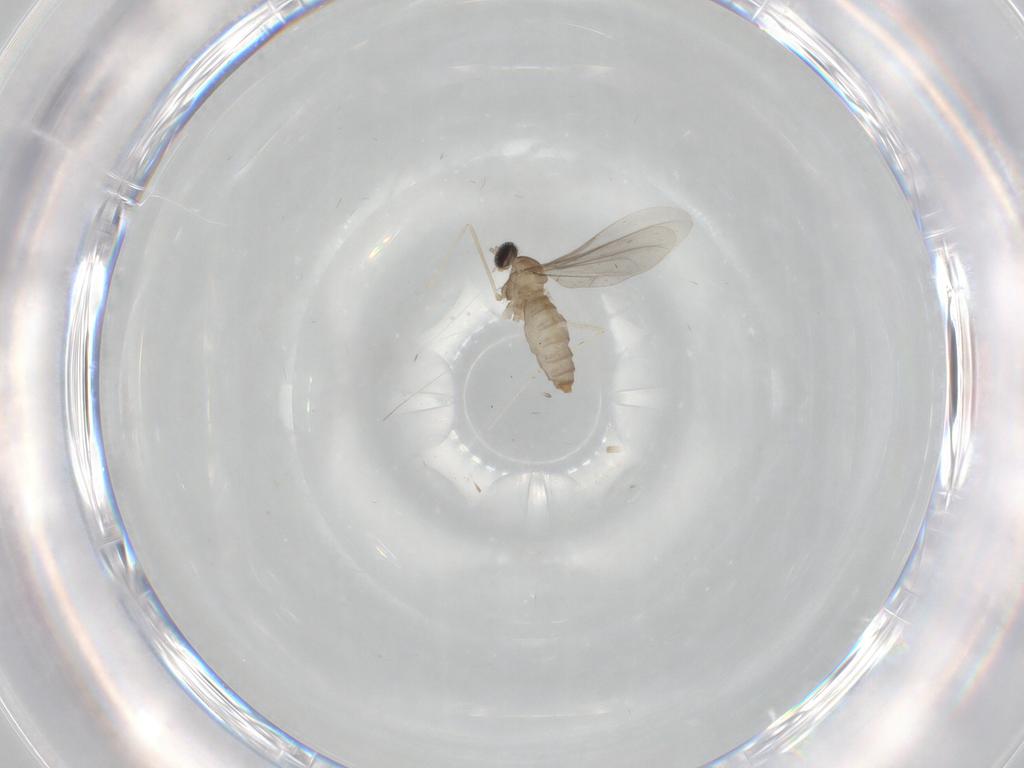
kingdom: Animalia
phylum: Arthropoda
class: Insecta
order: Diptera
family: Cecidomyiidae
